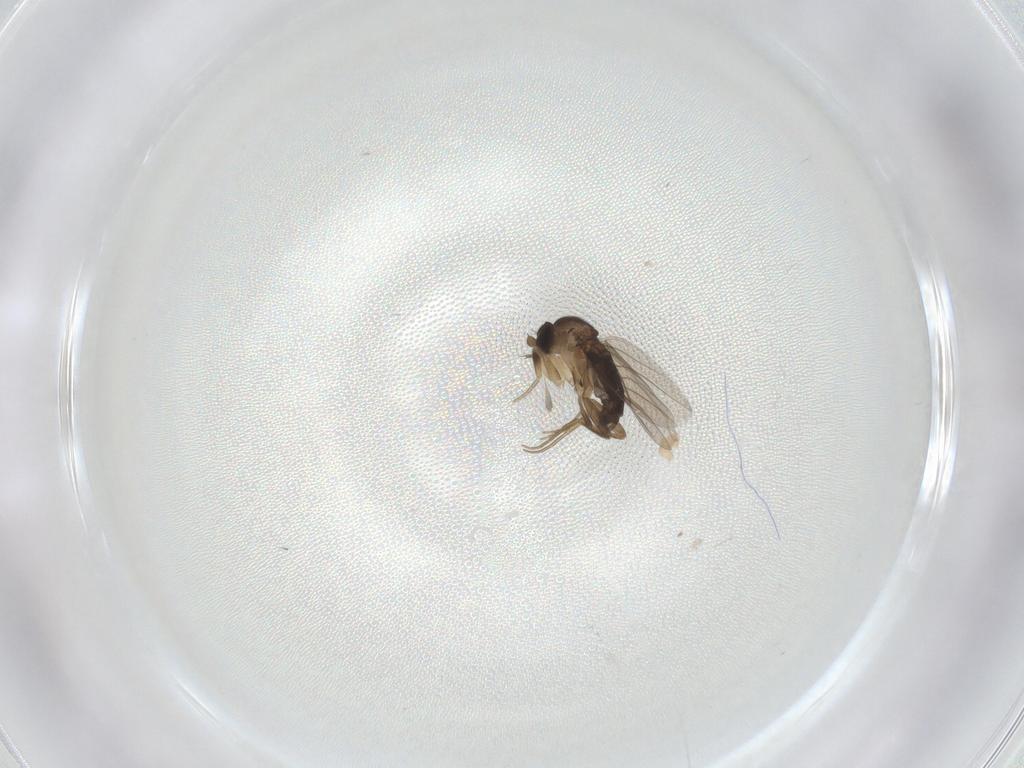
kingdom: Animalia
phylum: Arthropoda
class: Insecta
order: Diptera
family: Phoridae
